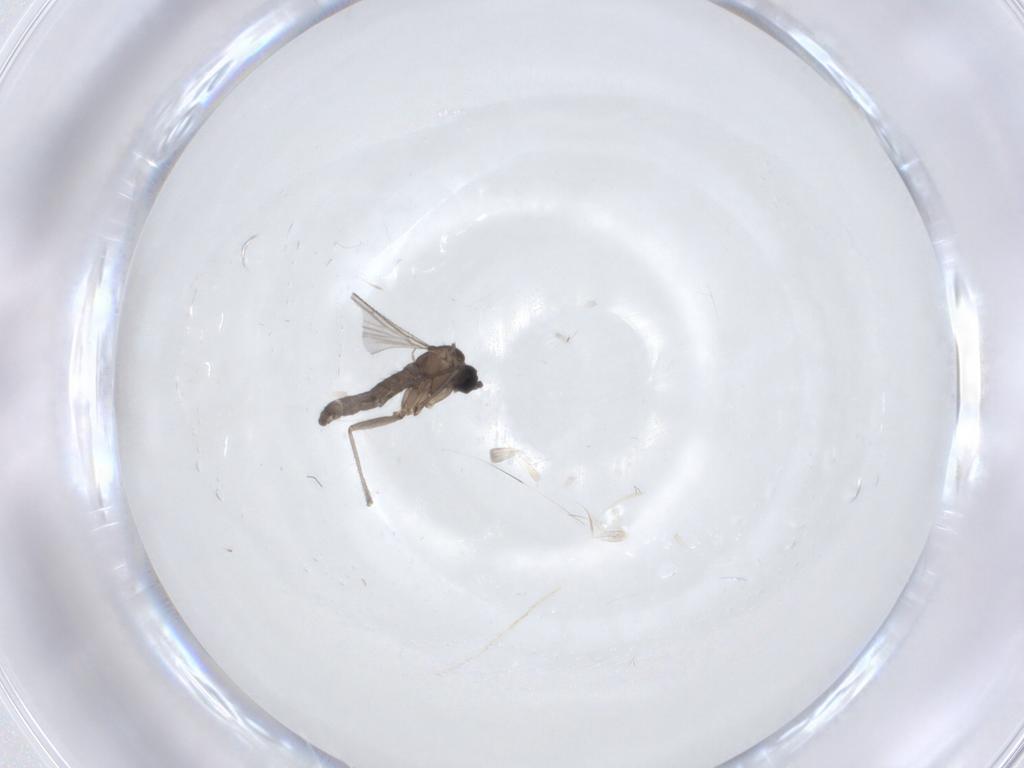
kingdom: Animalia
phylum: Arthropoda
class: Insecta
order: Diptera
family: Sciaridae
